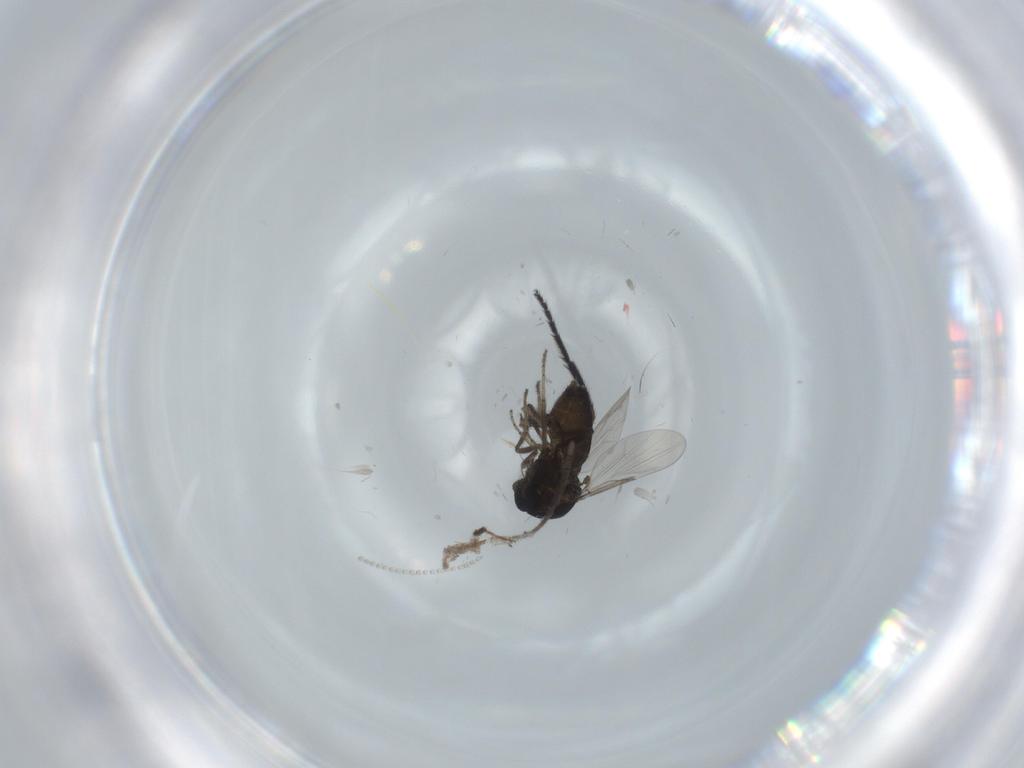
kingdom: Animalia
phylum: Arthropoda
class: Insecta
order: Diptera
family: Ceratopogonidae
